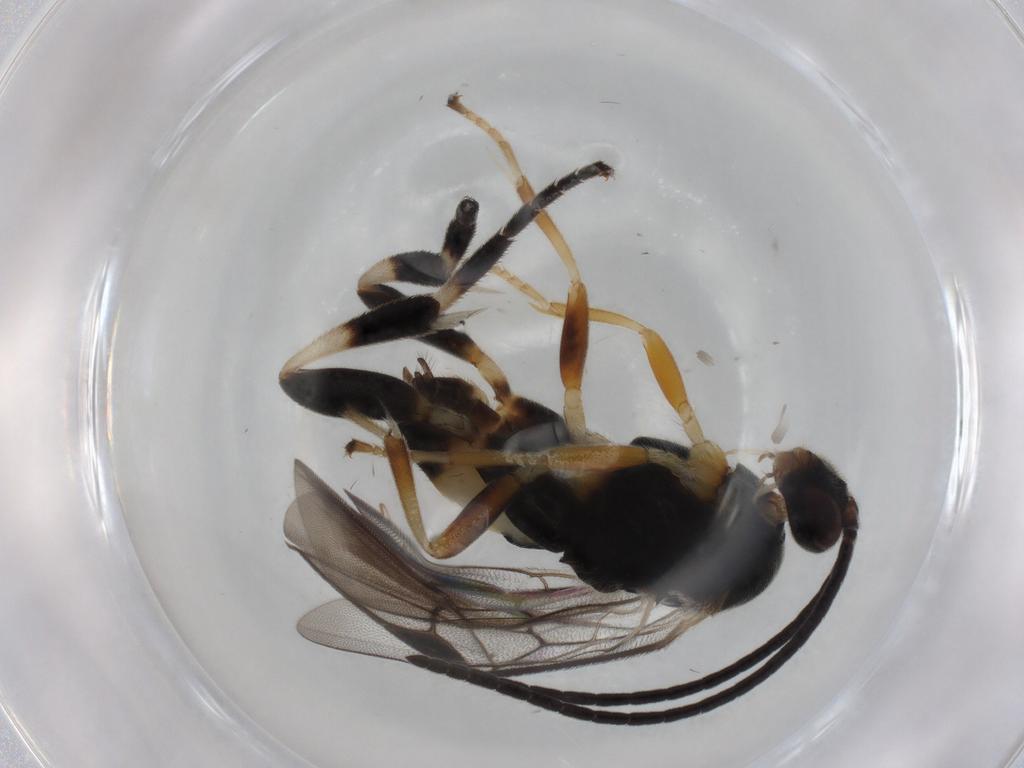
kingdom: Animalia
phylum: Arthropoda
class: Insecta
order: Hymenoptera
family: Braconidae
